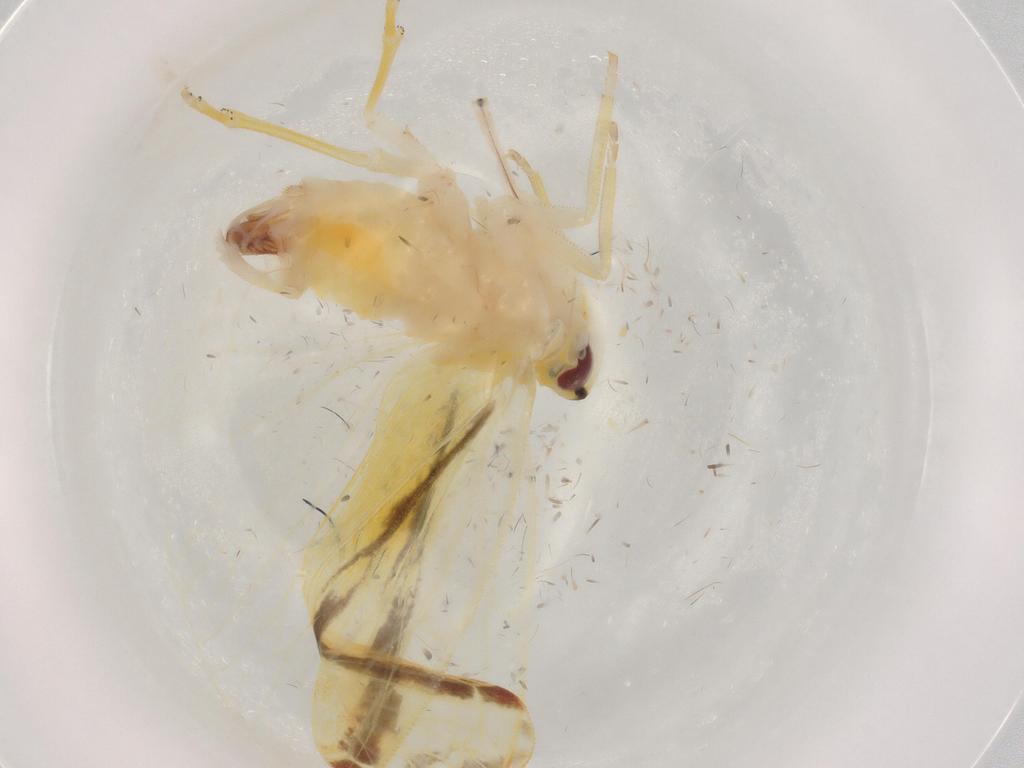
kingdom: Animalia
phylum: Arthropoda
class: Insecta
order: Hemiptera
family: Derbidae
